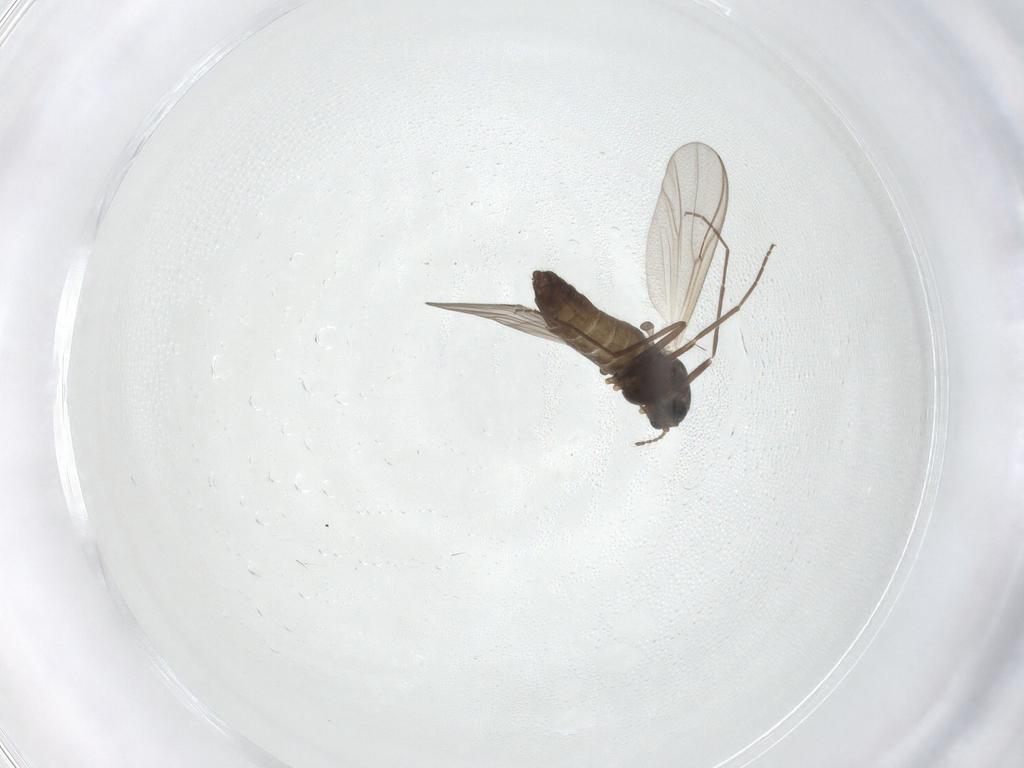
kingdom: Animalia
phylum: Arthropoda
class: Insecta
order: Diptera
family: Chironomidae
